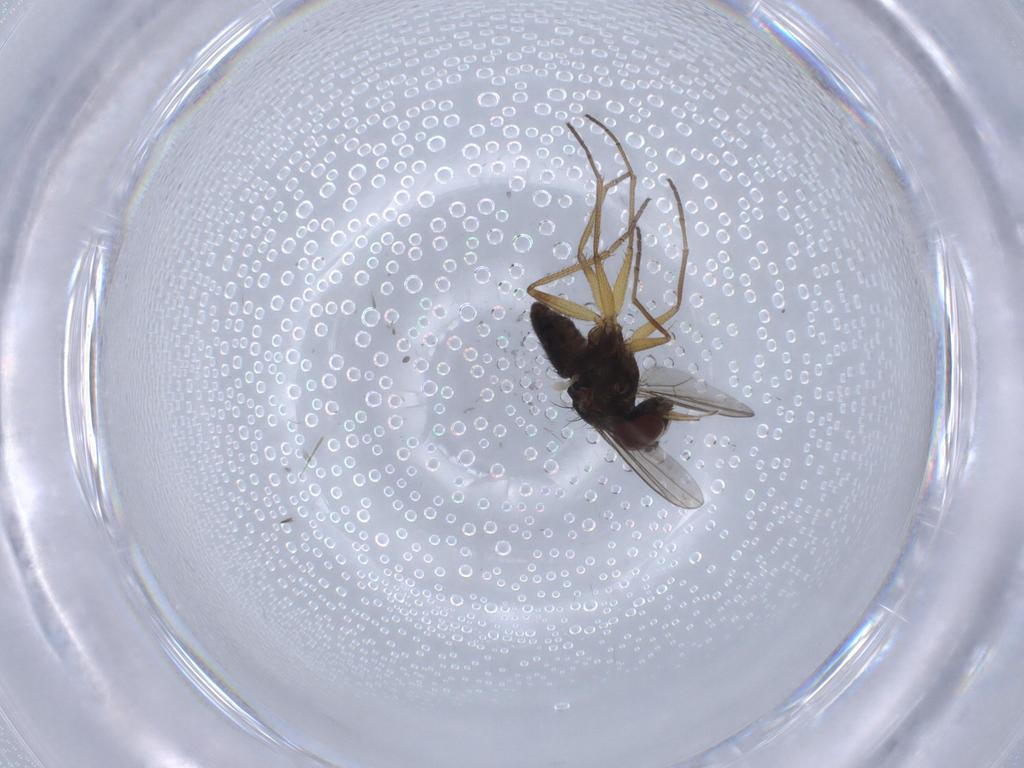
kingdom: Animalia
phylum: Arthropoda
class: Insecta
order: Diptera
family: Dolichopodidae
